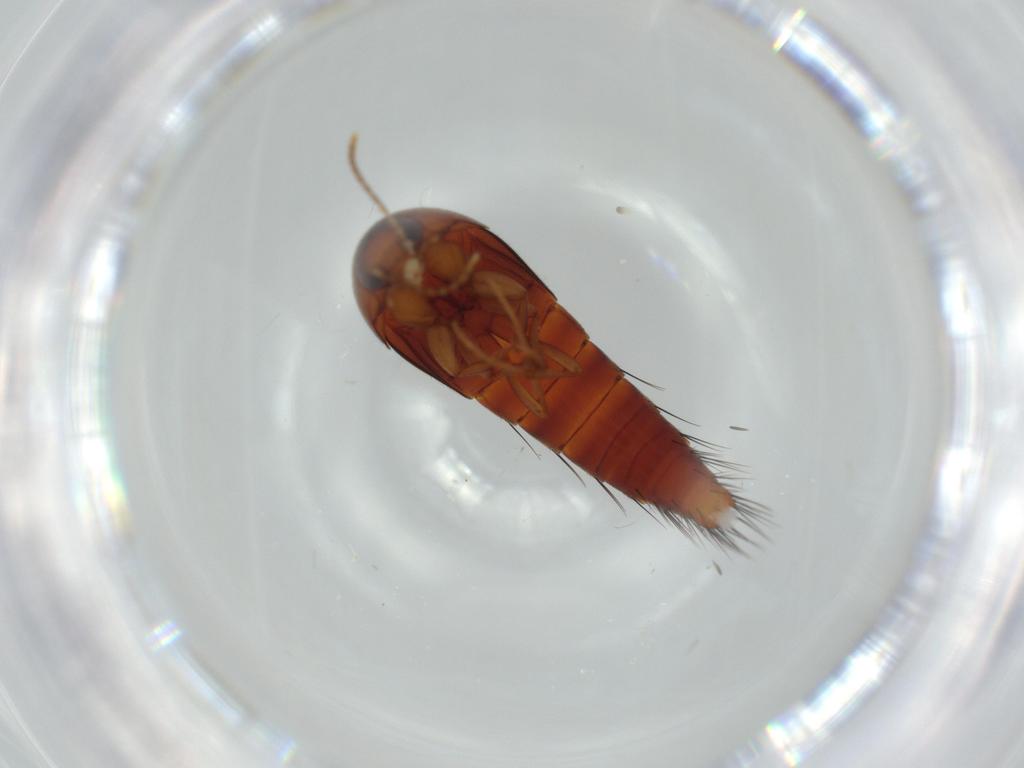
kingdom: Animalia
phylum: Arthropoda
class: Insecta
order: Coleoptera
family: Staphylinidae
